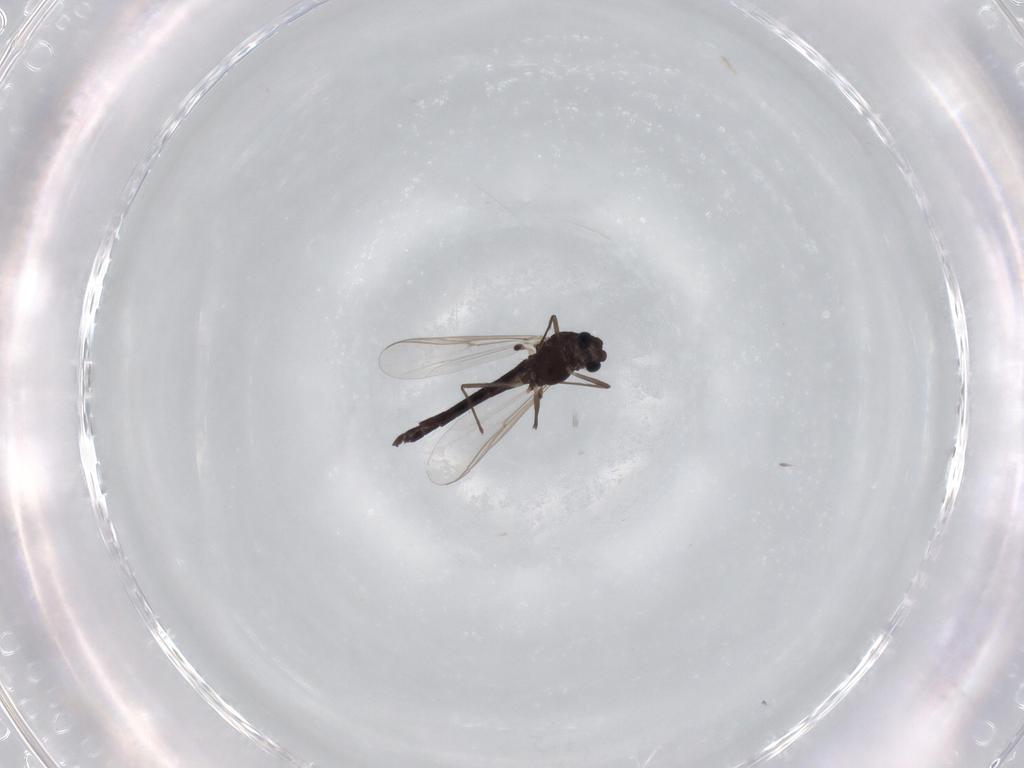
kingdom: Animalia
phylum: Arthropoda
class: Insecta
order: Diptera
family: Chironomidae
